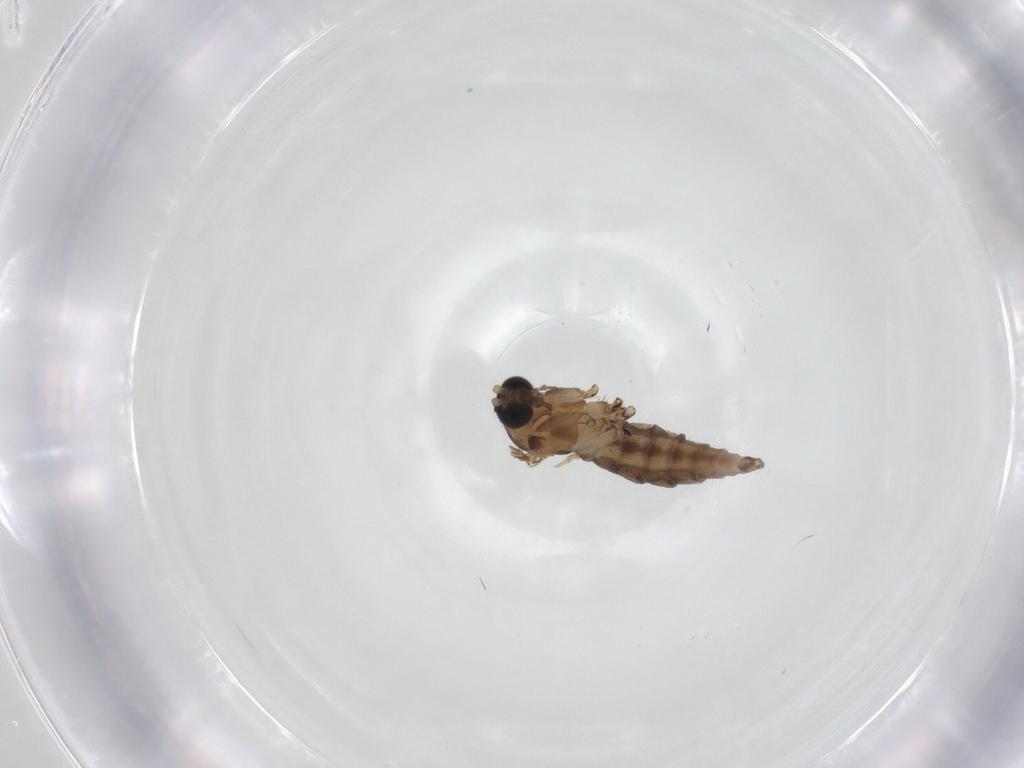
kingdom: Animalia
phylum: Arthropoda
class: Insecta
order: Diptera
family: Sciaridae
